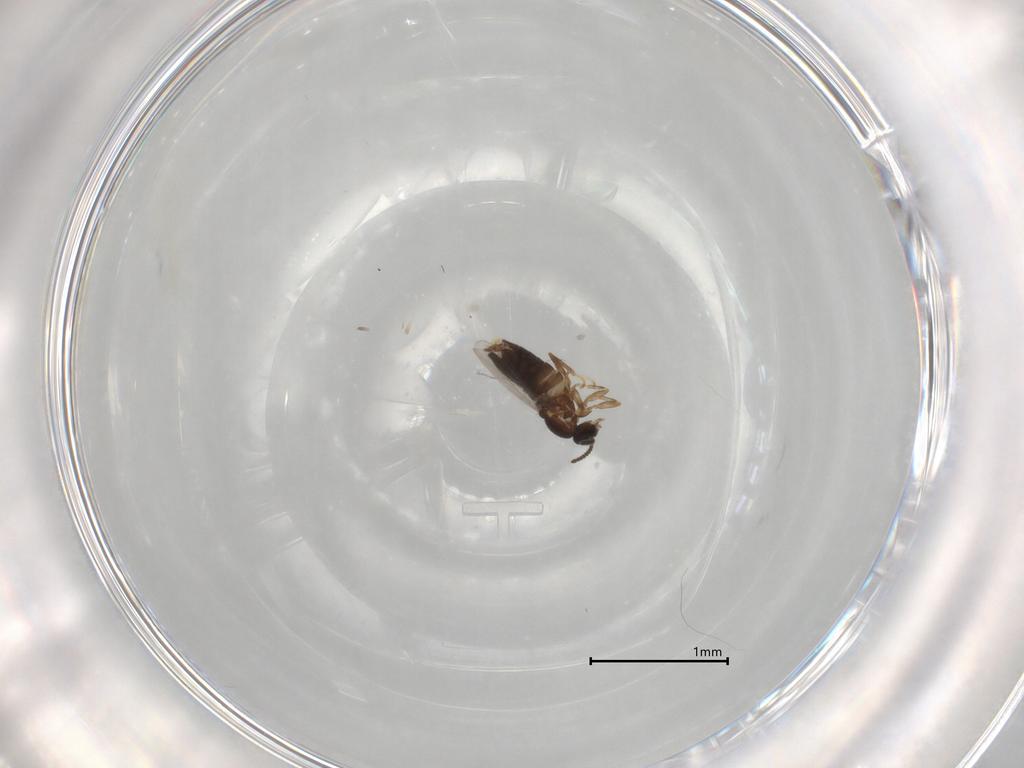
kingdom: Animalia
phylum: Arthropoda
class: Insecta
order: Diptera
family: Scatopsidae
